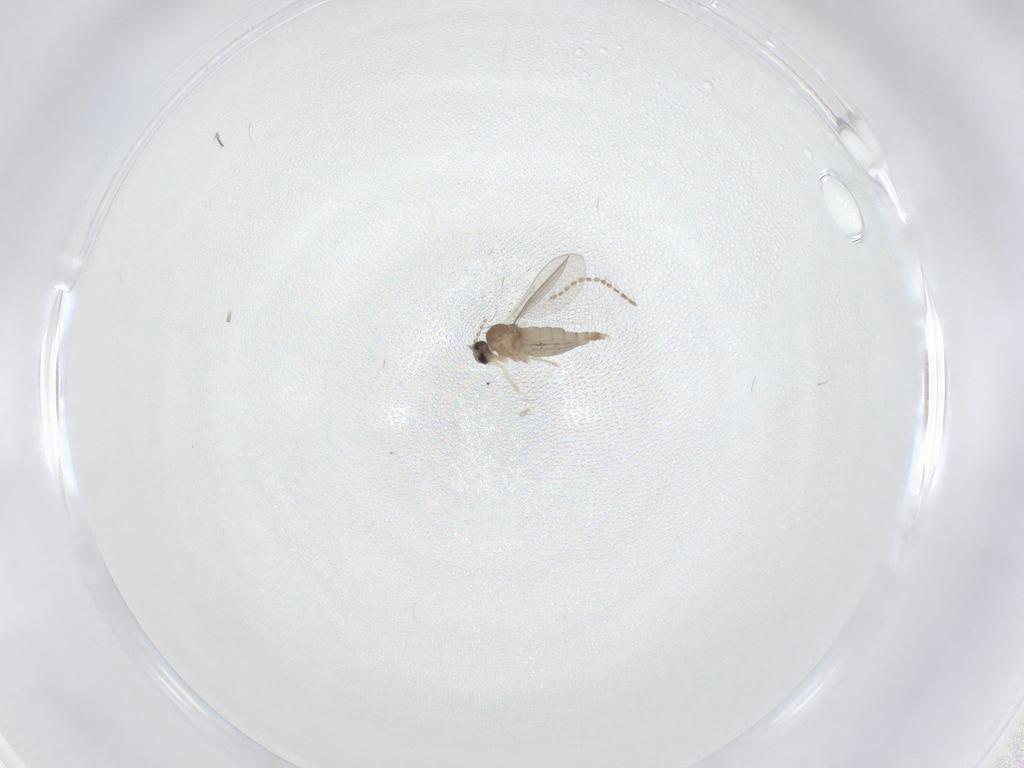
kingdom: Animalia
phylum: Arthropoda
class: Insecta
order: Diptera
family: Cecidomyiidae
